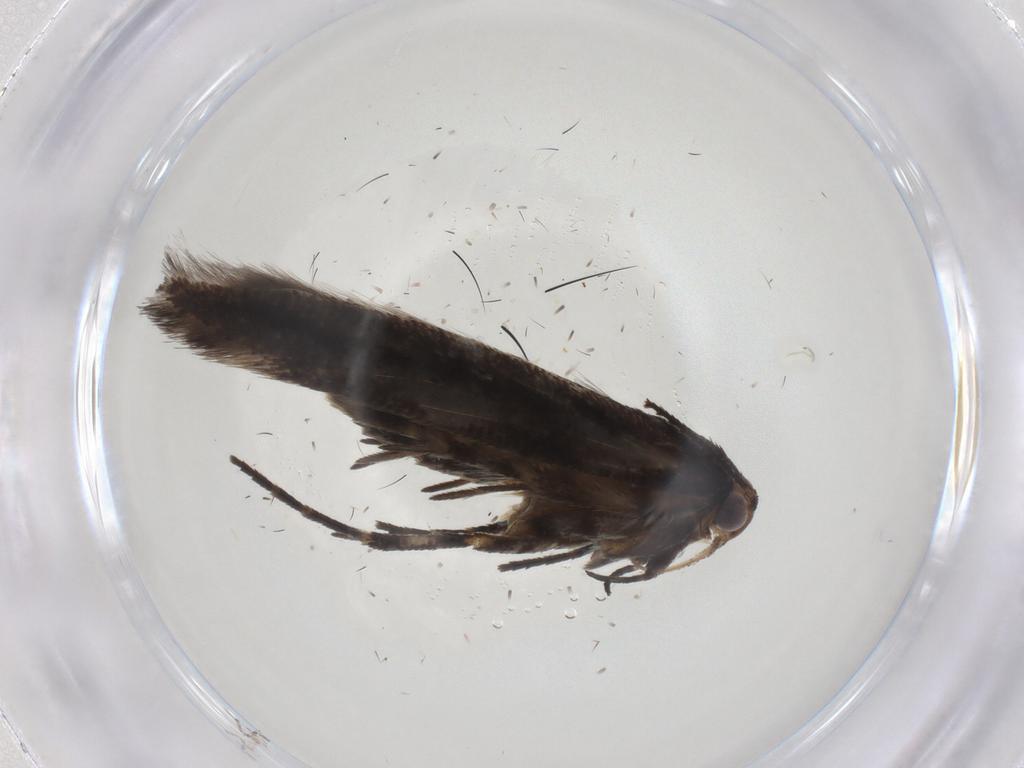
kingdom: Animalia
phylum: Arthropoda
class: Insecta
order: Lepidoptera
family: Gelechiidae
